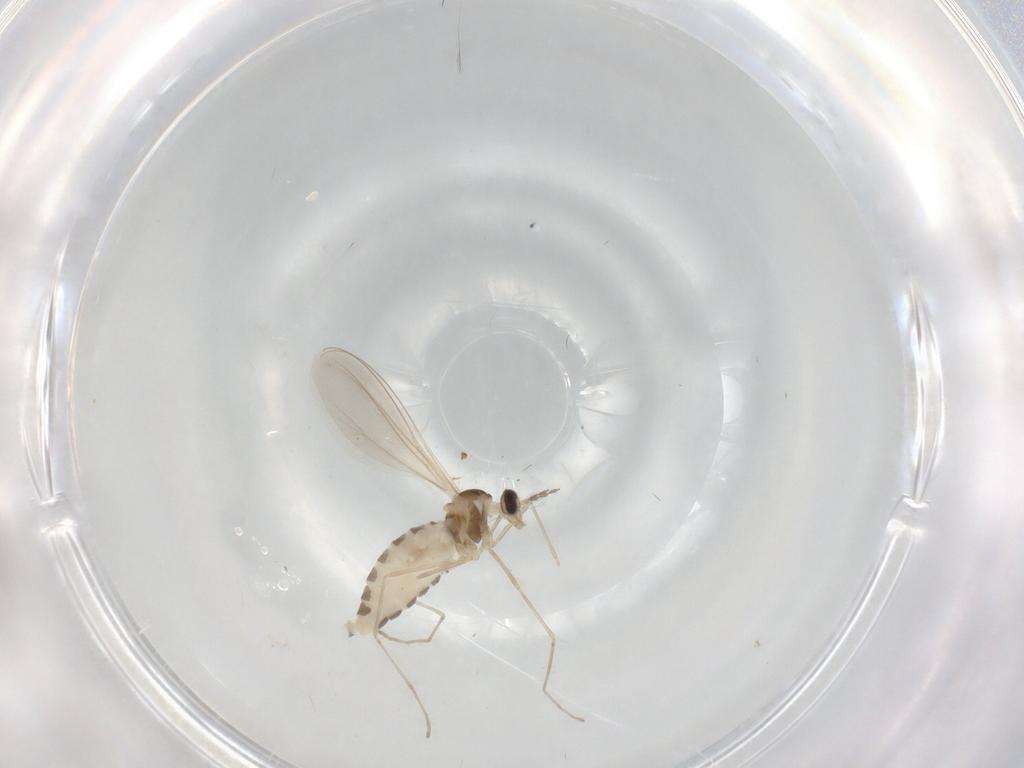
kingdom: Animalia
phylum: Arthropoda
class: Insecta
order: Diptera
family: Cecidomyiidae
